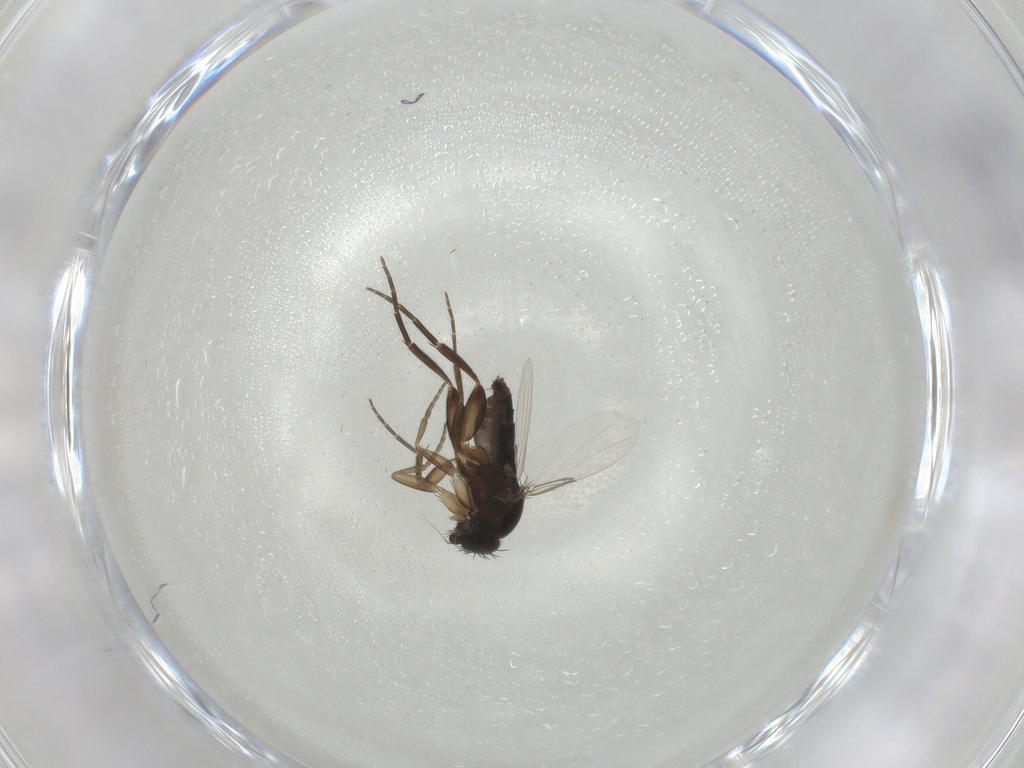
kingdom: Animalia
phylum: Arthropoda
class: Insecta
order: Diptera
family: Phoridae
